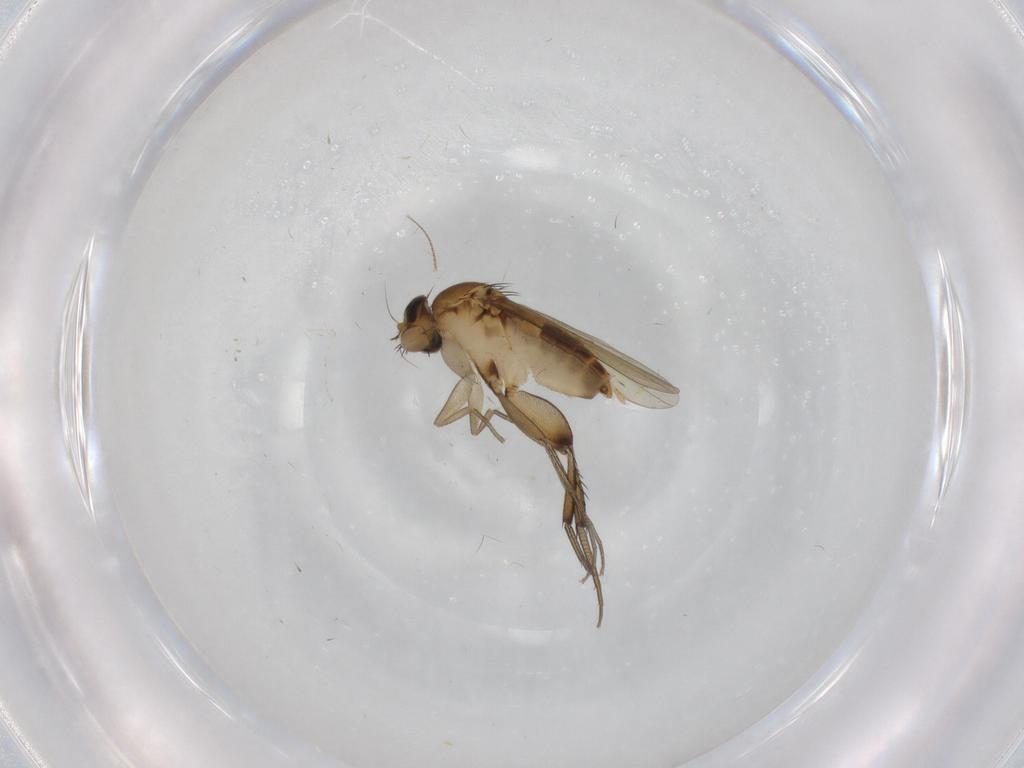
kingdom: Animalia
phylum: Arthropoda
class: Insecta
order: Diptera
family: Phoridae
